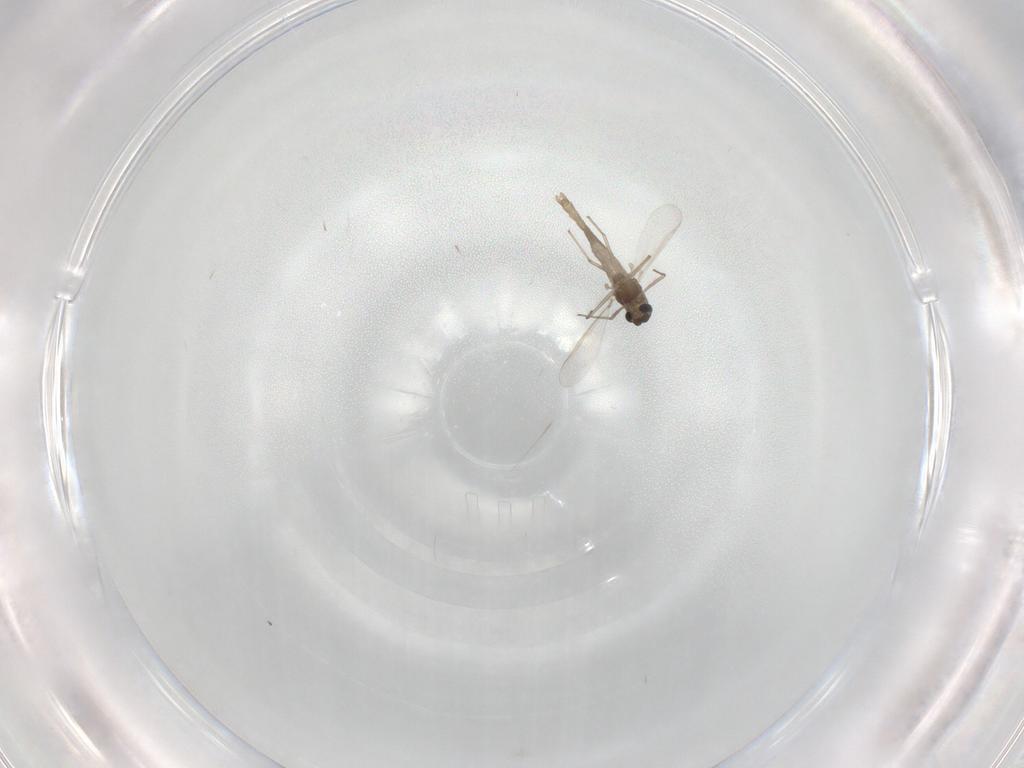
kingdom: Animalia
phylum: Arthropoda
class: Insecta
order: Diptera
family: Chironomidae
